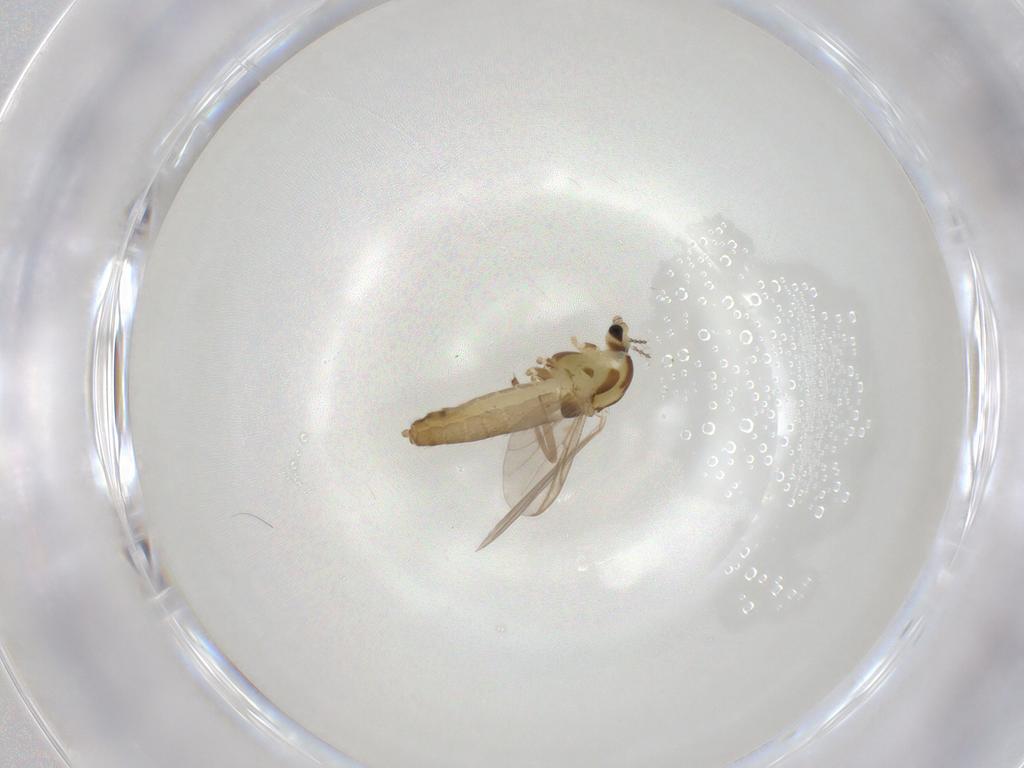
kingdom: Animalia
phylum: Arthropoda
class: Insecta
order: Diptera
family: Chironomidae
